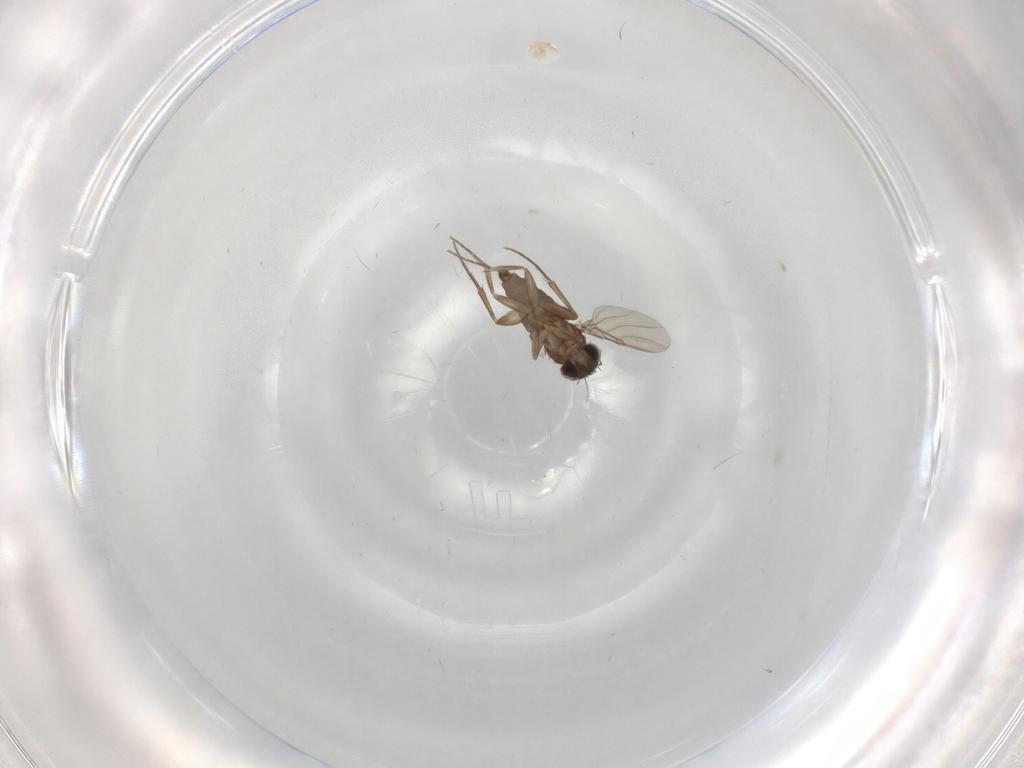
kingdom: Animalia
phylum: Arthropoda
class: Insecta
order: Diptera
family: Muscidae
